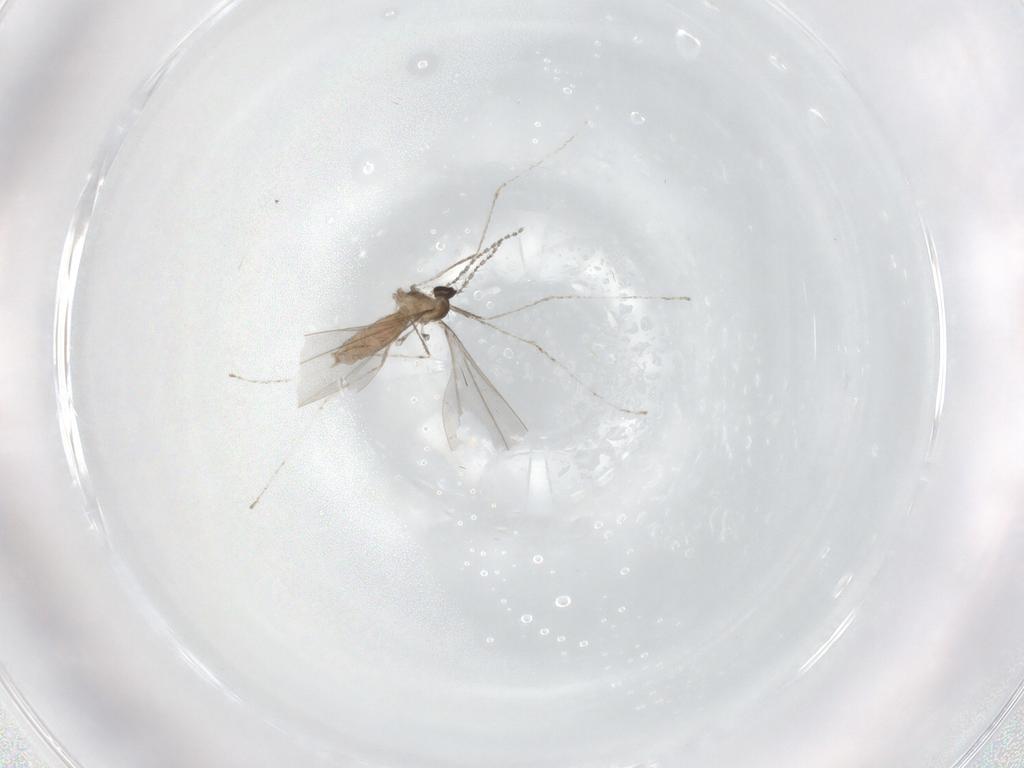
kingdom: Animalia
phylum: Arthropoda
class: Insecta
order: Diptera
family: Cecidomyiidae
